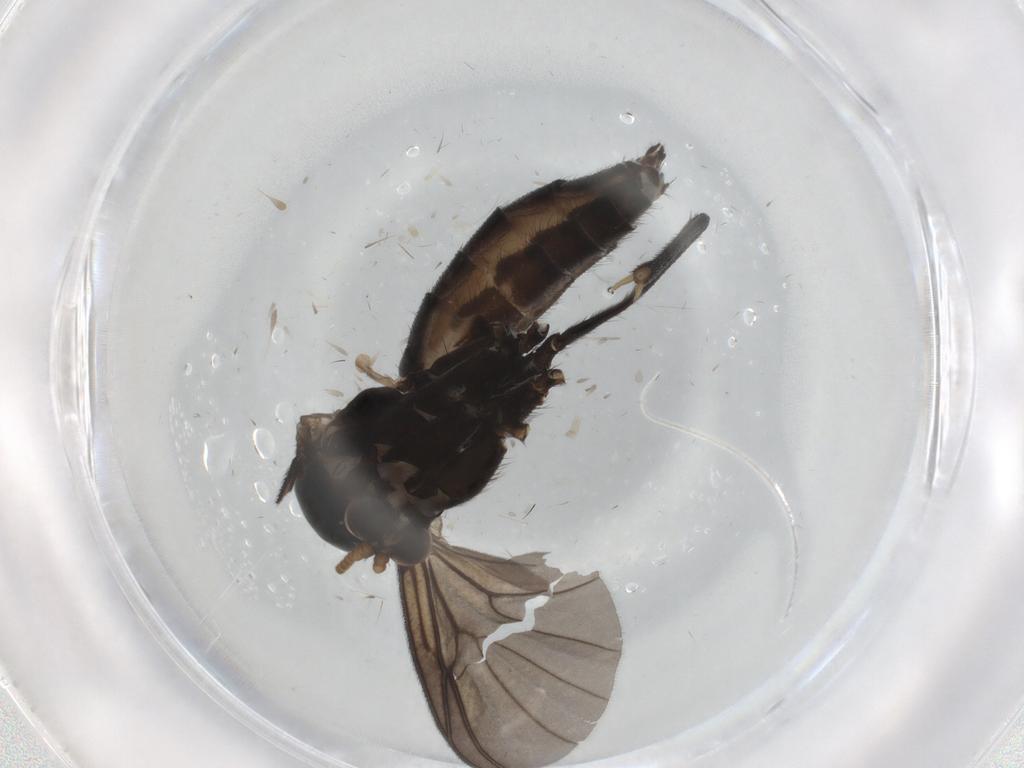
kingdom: Animalia
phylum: Arthropoda
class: Insecta
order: Diptera
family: Mycetophilidae
